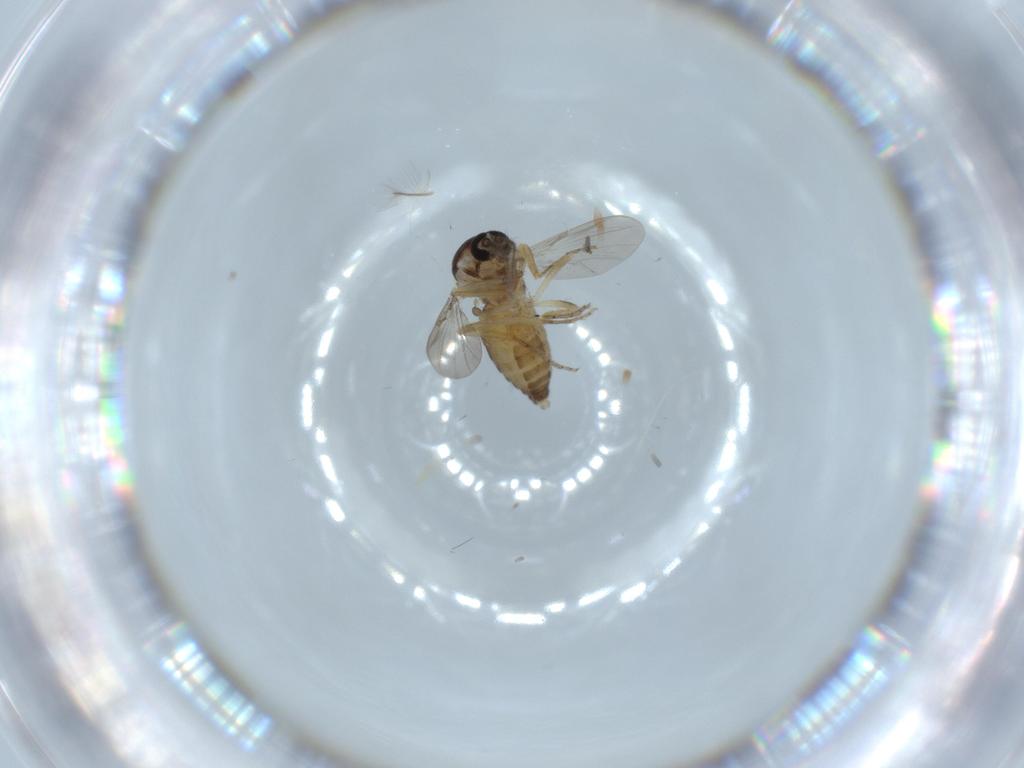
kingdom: Animalia
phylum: Arthropoda
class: Insecta
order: Diptera
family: Ceratopogonidae
